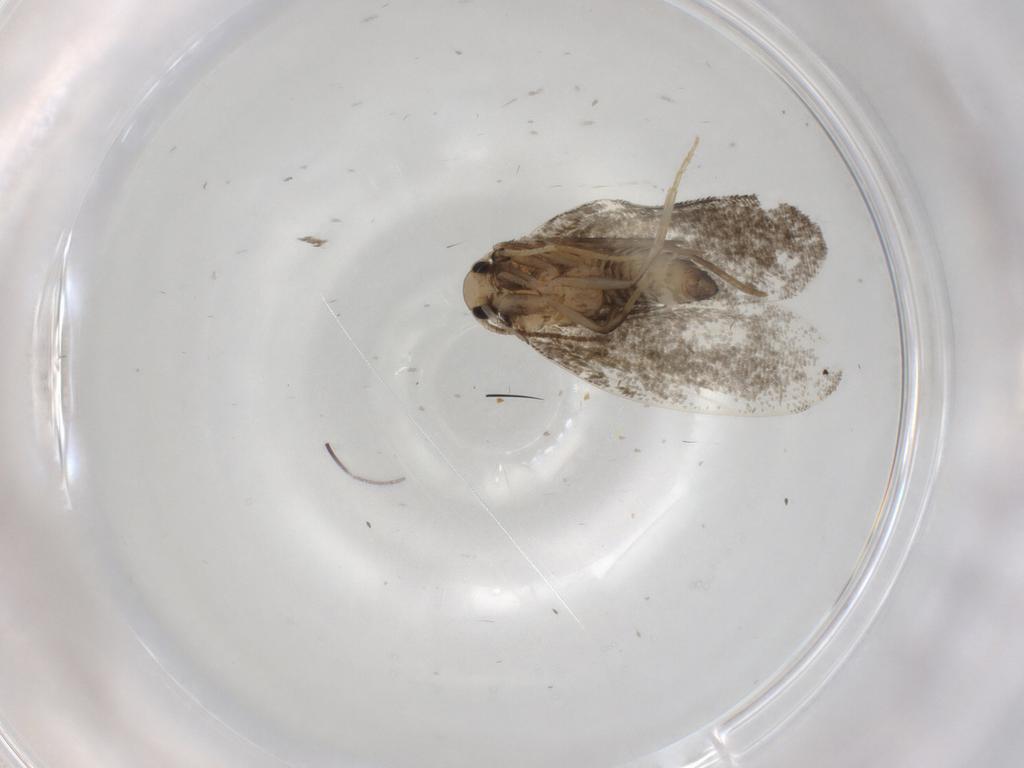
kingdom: Animalia
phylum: Arthropoda
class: Insecta
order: Lepidoptera
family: Psychidae
